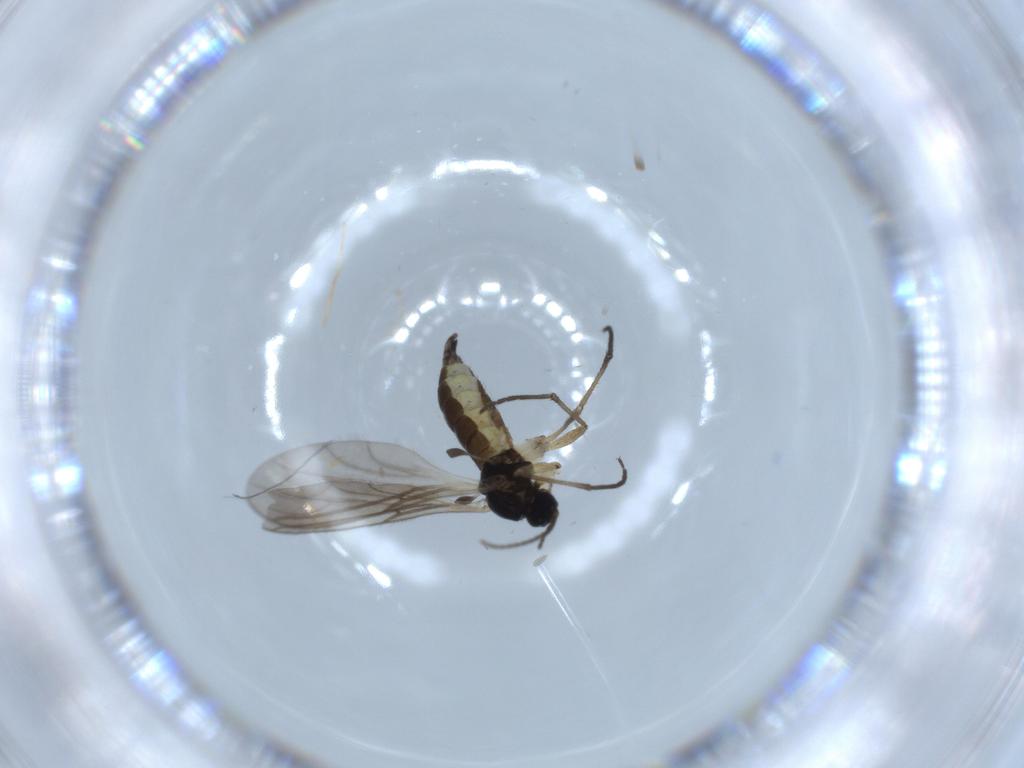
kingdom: Animalia
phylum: Arthropoda
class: Insecta
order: Diptera
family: Sciaridae
